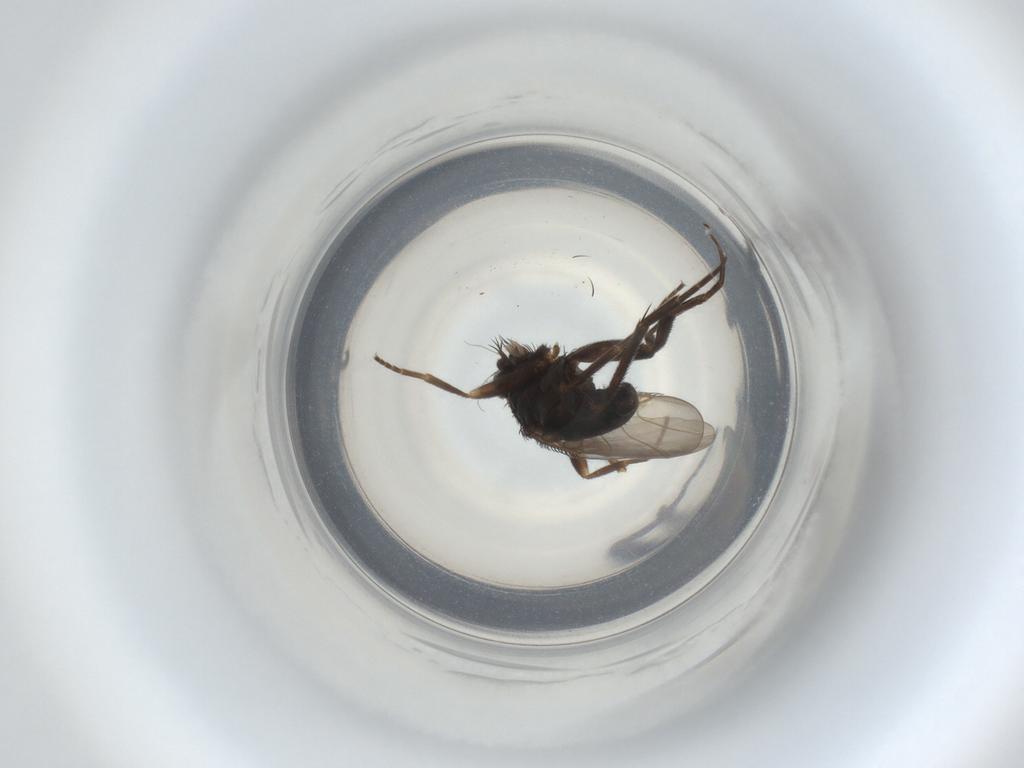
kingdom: Animalia
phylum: Arthropoda
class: Insecta
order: Diptera
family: Phoridae
